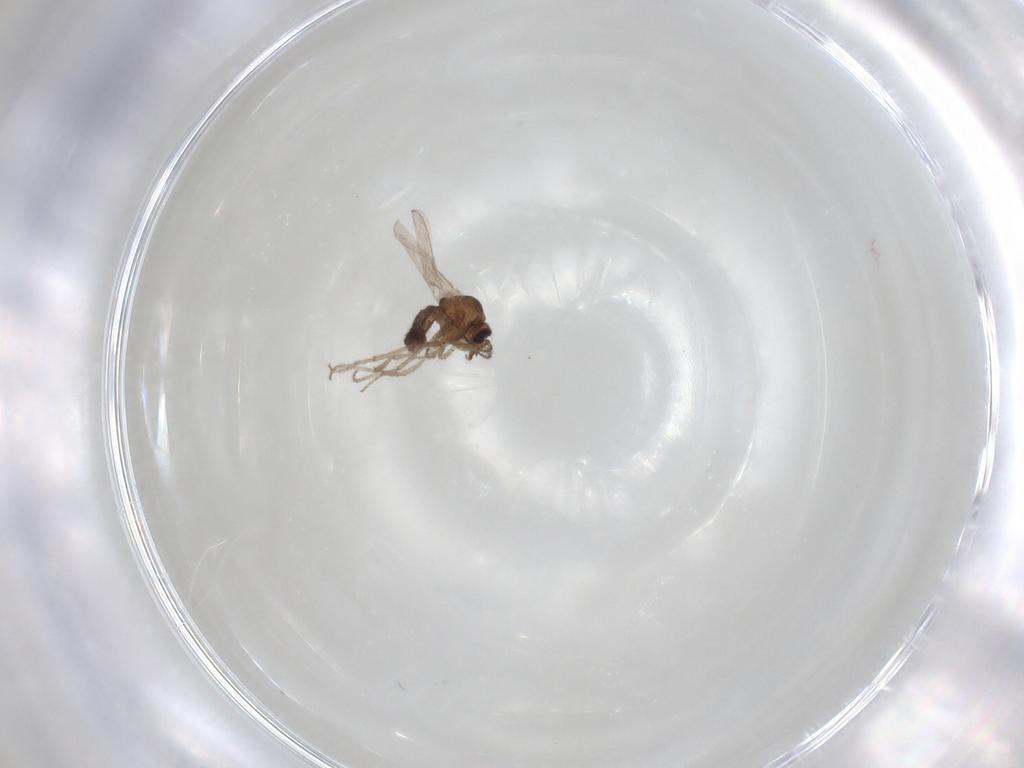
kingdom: Animalia
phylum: Arthropoda
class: Insecta
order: Diptera
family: Ceratopogonidae
